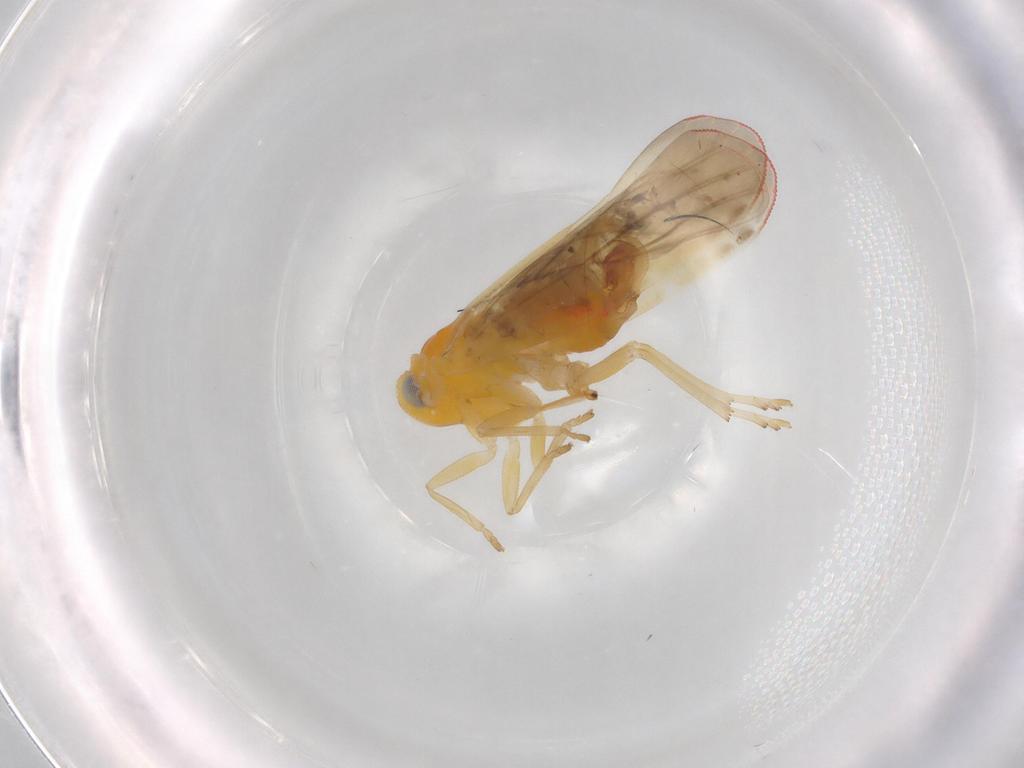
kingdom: Animalia
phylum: Arthropoda
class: Insecta
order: Hemiptera
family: Derbidae
